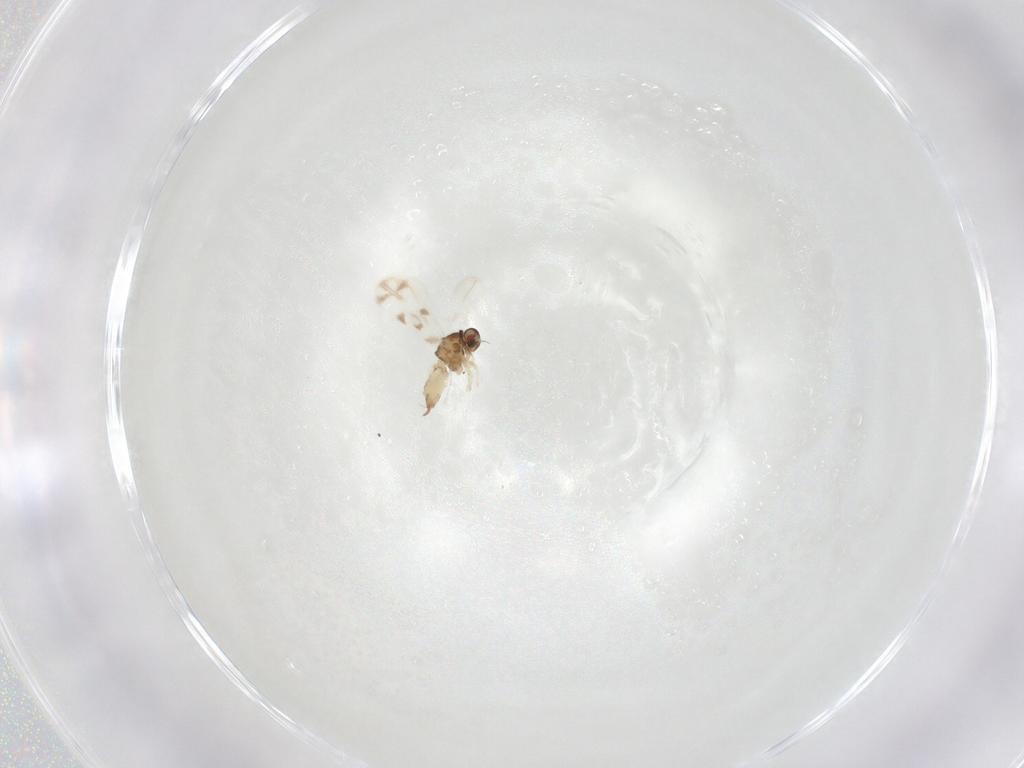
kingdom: Animalia
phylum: Arthropoda
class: Insecta
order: Hemiptera
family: Aleyrodidae
